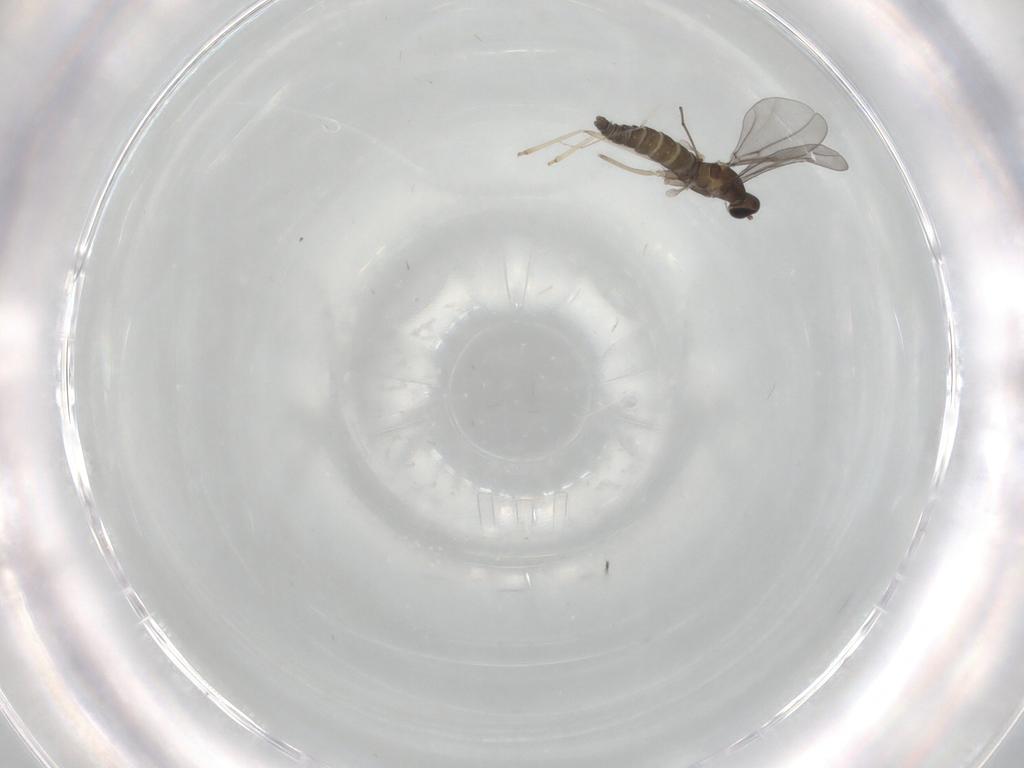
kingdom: Animalia
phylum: Arthropoda
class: Insecta
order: Diptera
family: Cecidomyiidae
